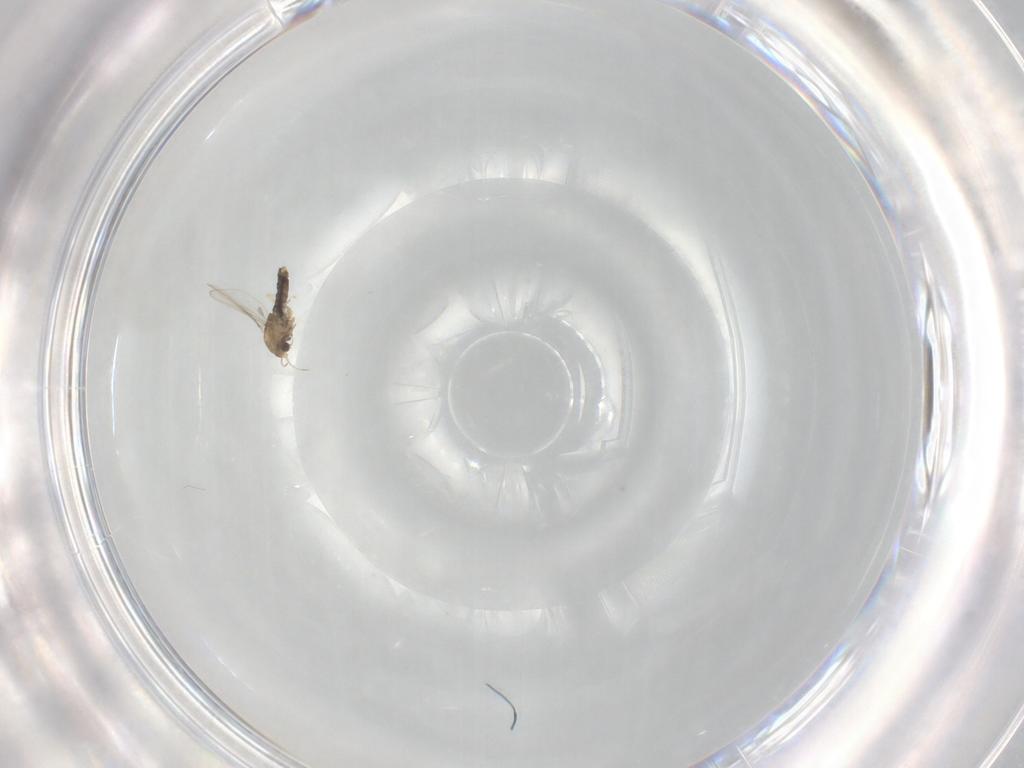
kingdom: Animalia
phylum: Arthropoda
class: Insecta
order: Diptera
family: Chironomidae
